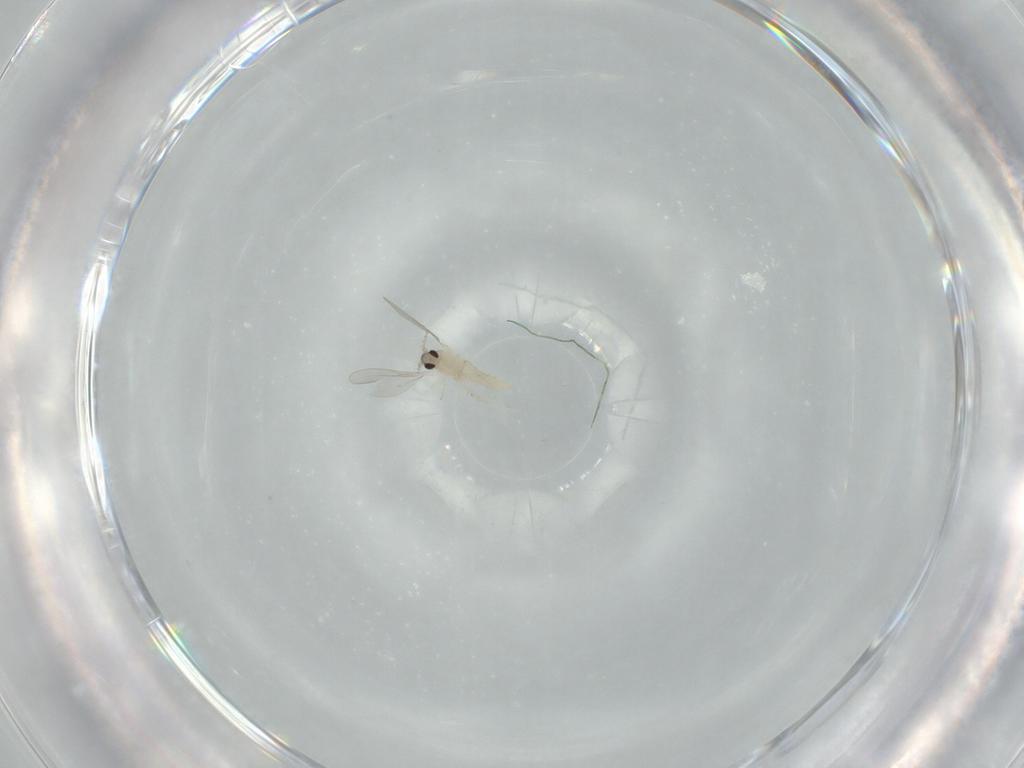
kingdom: Animalia
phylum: Arthropoda
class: Insecta
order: Diptera
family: Cecidomyiidae
